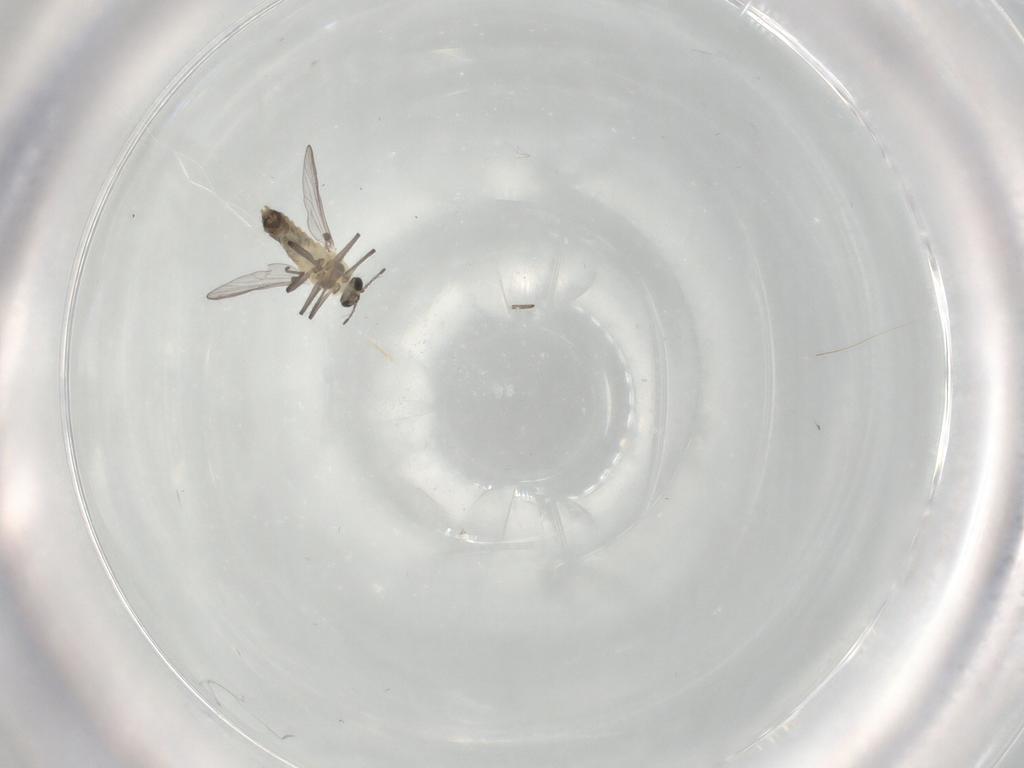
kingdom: Animalia
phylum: Arthropoda
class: Insecta
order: Diptera
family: Chironomidae
